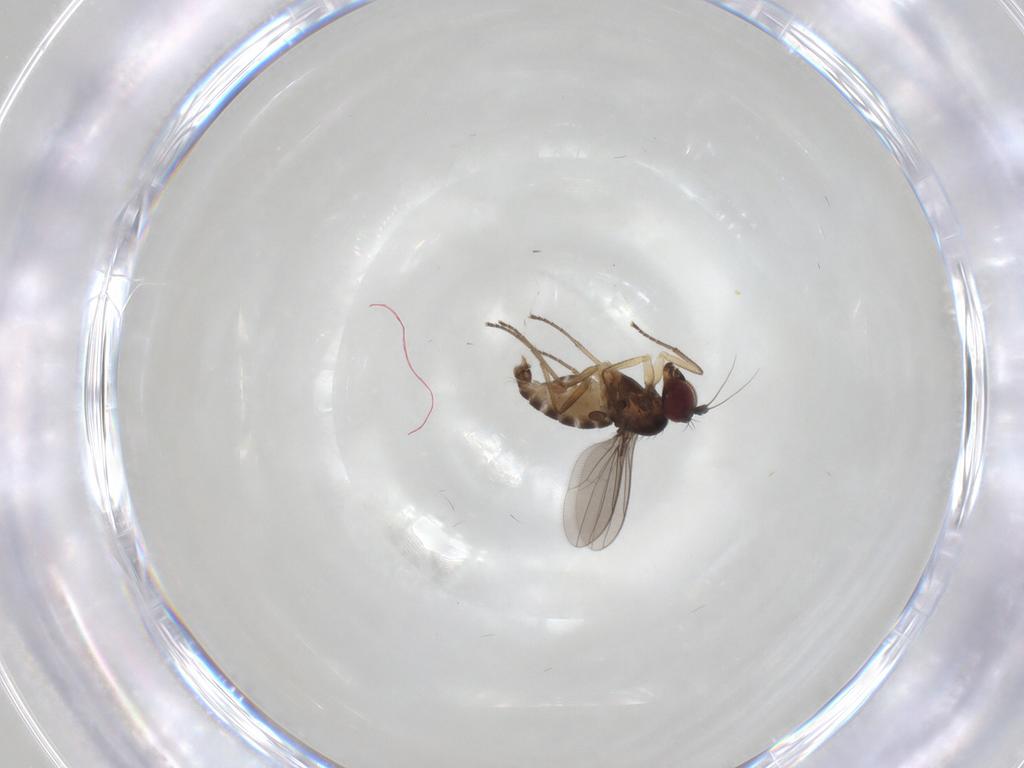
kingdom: Animalia
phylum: Arthropoda
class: Insecta
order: Diptera
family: Dolichopodidae
